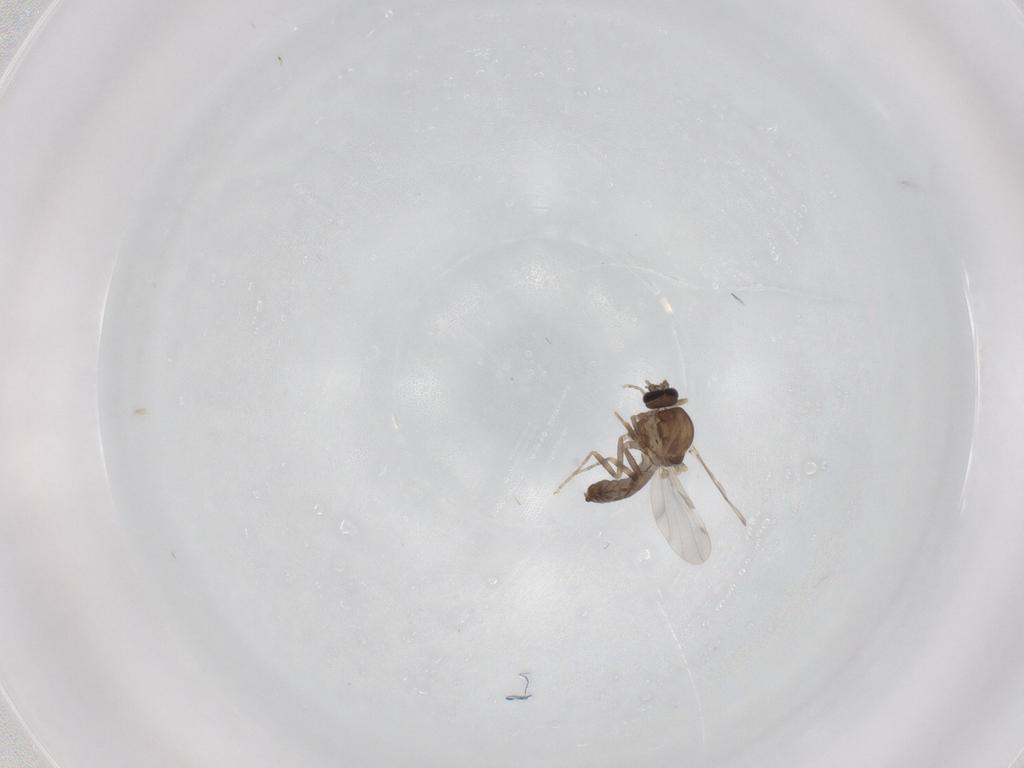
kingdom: Animalia
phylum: Arthropoda
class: Insecta
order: Diptera
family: Ceratopogonidae
